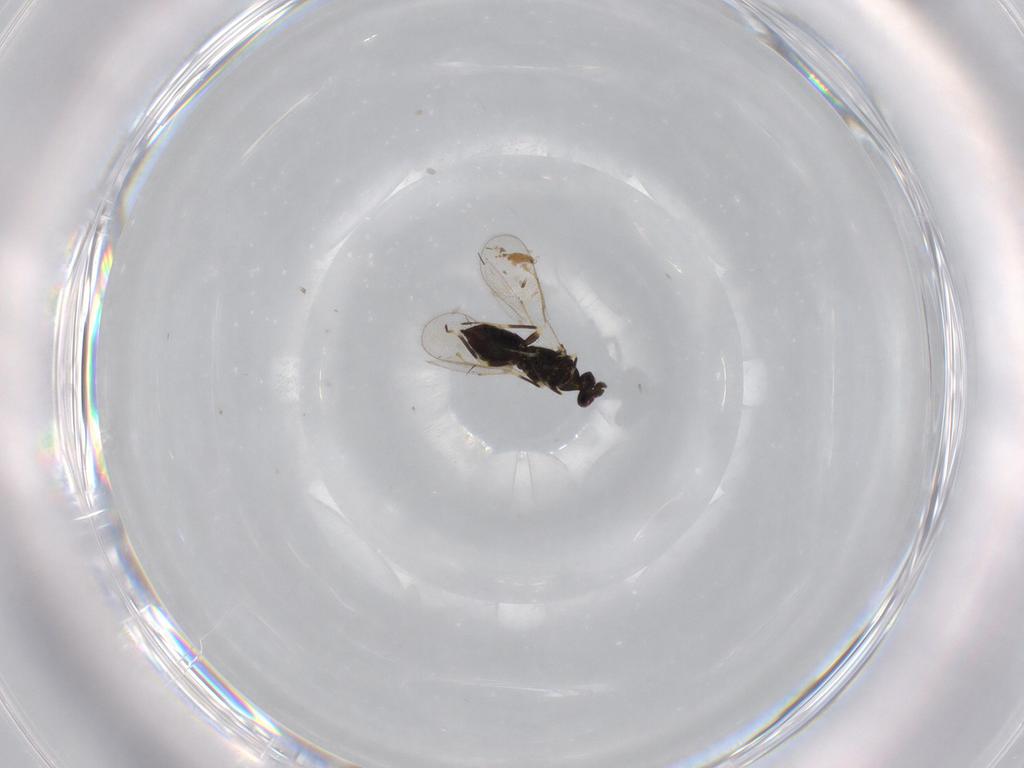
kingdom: Animalia
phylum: Arthropoda
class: Insecta
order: Hymenoptera
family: Eulophidae
